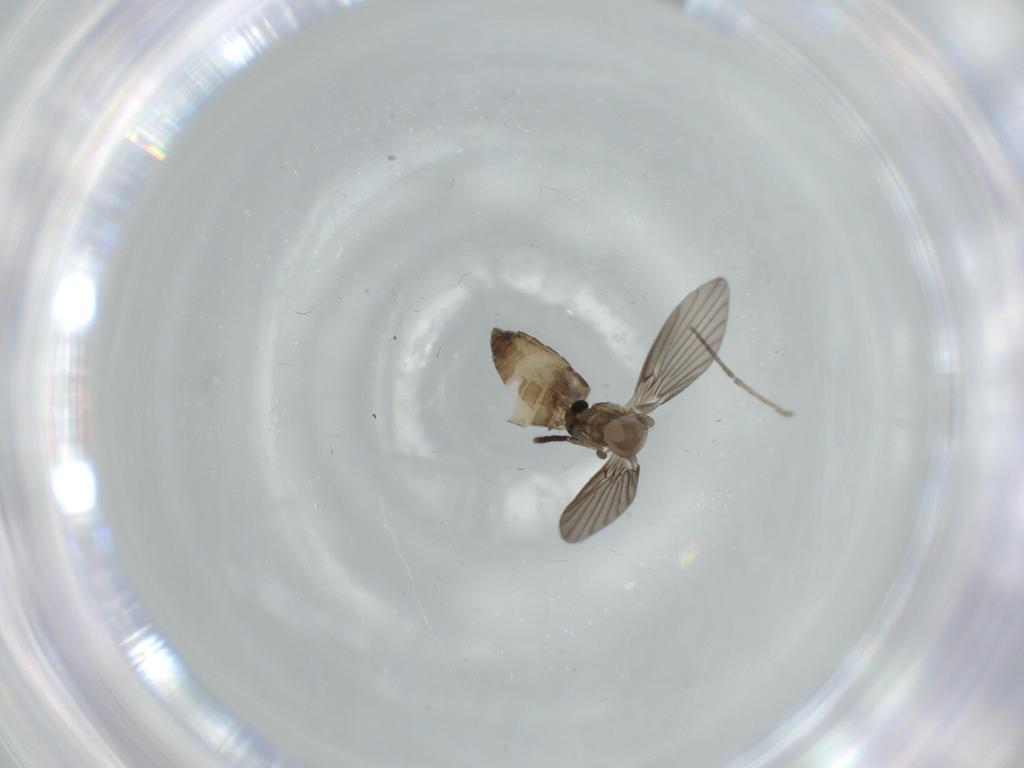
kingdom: Animalia
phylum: Arthropoda
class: Insecta
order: Diptera
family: Psychodidae
